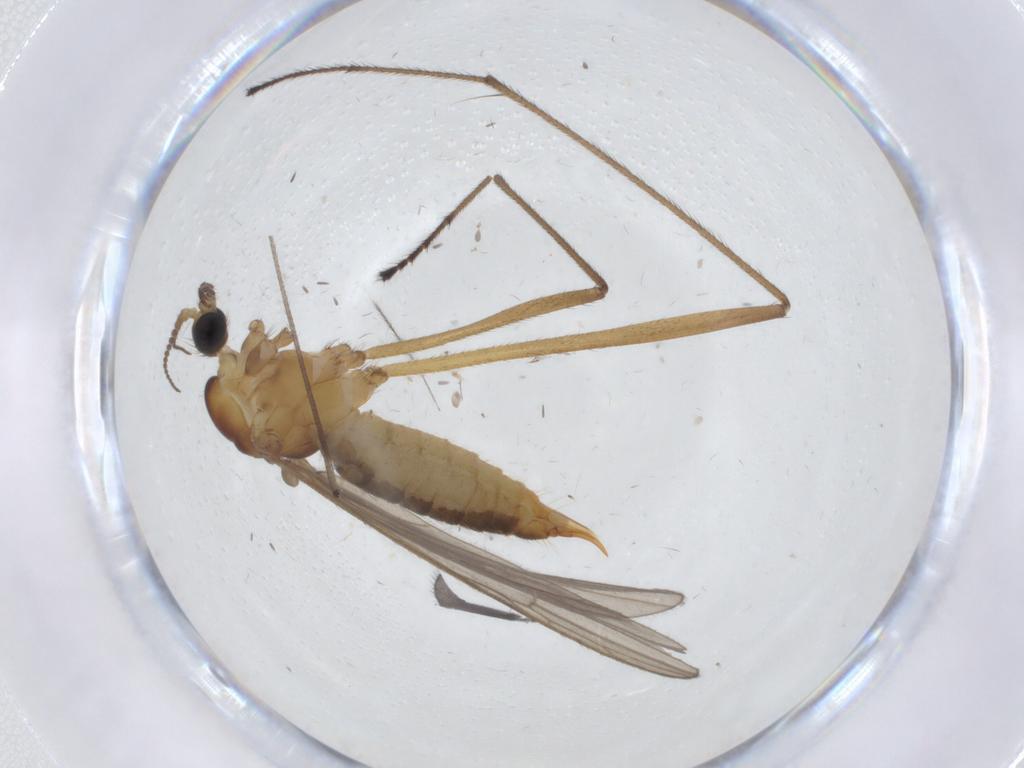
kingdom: Animalia
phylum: Arthropoda
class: Insecta
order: Diptera
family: Limoniidae
